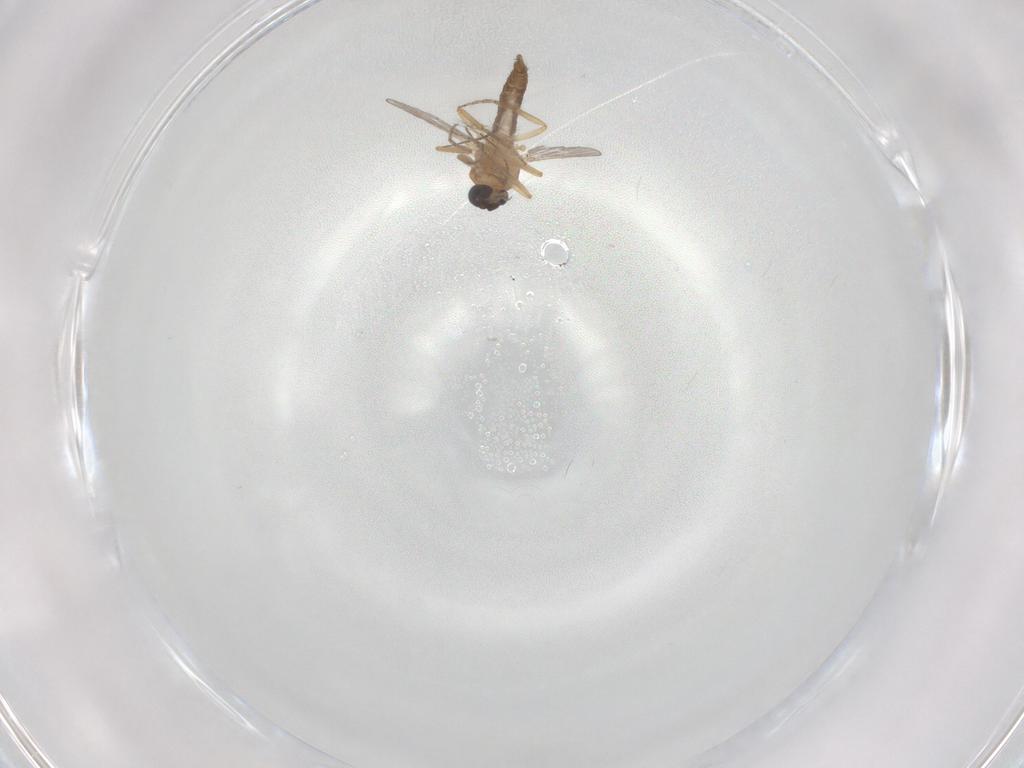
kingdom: Animalia
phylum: Arthropoda
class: Insecta
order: Diptera
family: Ceratopogonidae
